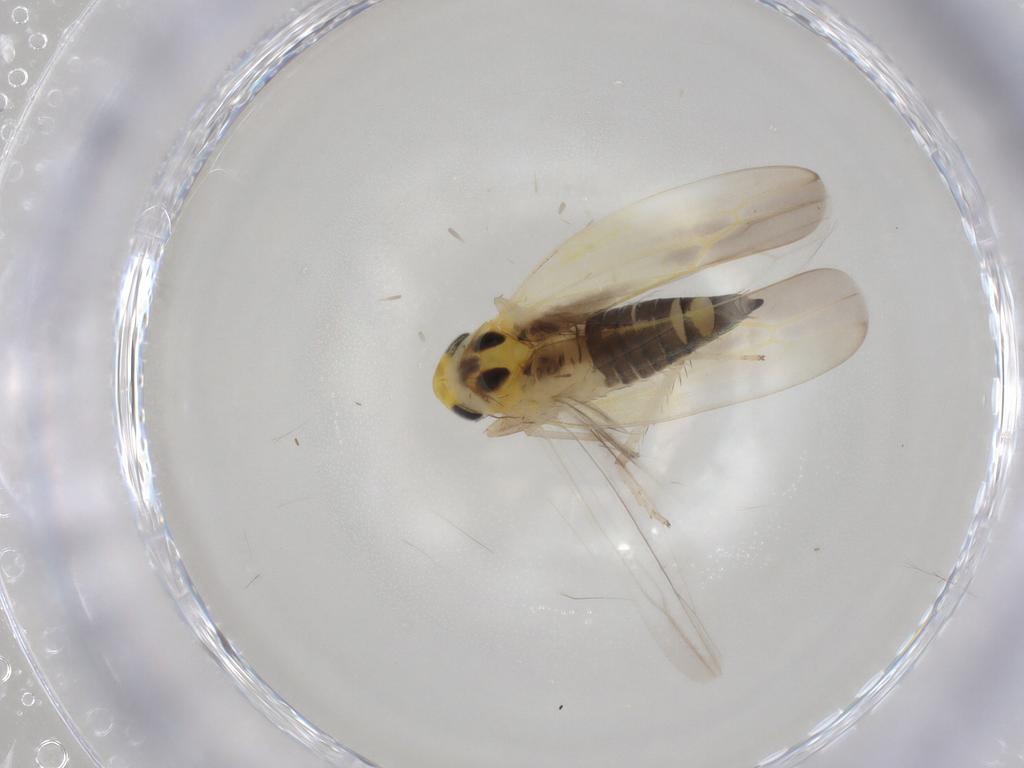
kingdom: Animalia
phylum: Arthropoda
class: Insecta
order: Hemiptera
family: Cicadellidae
